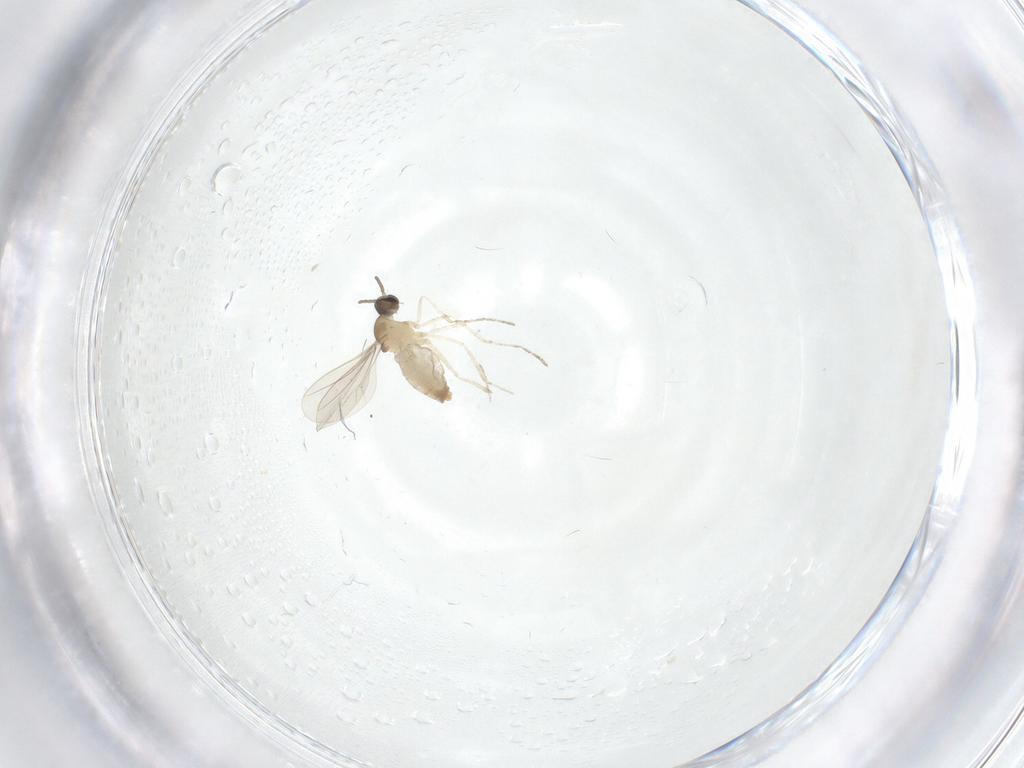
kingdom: Animalia
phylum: Arthropoda
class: Insecta
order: Diptera
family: Cecidomyiidae
